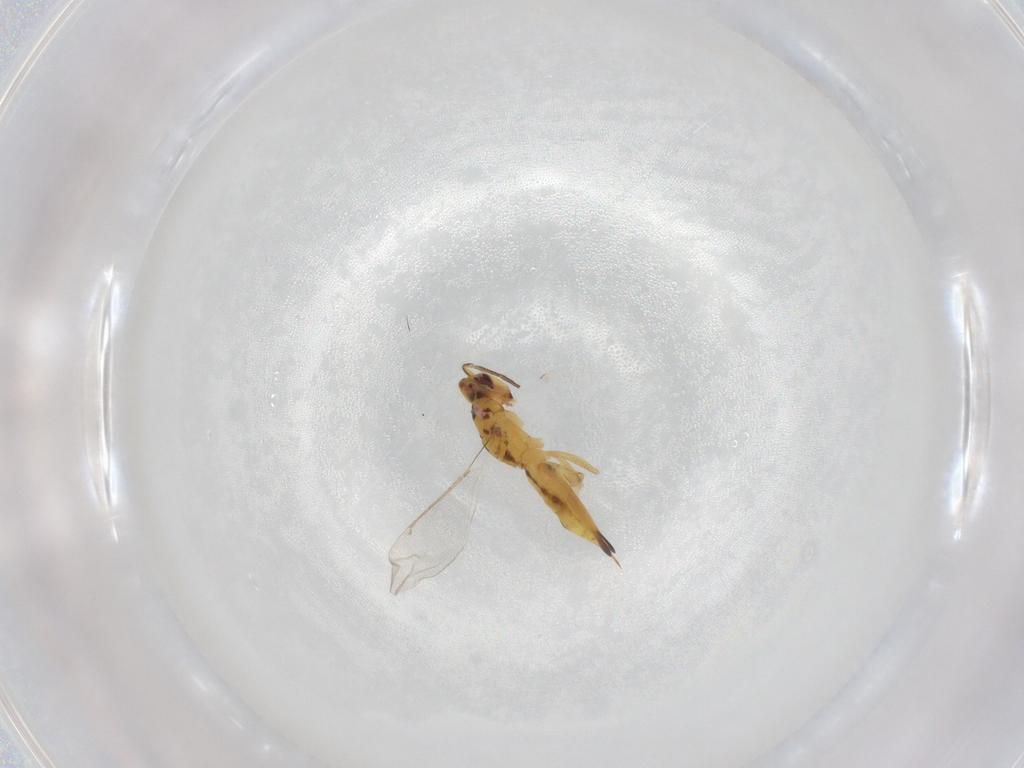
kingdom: Animalia
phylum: Arthropoda
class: Insecta
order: Hymenoptera
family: Eulophidae
